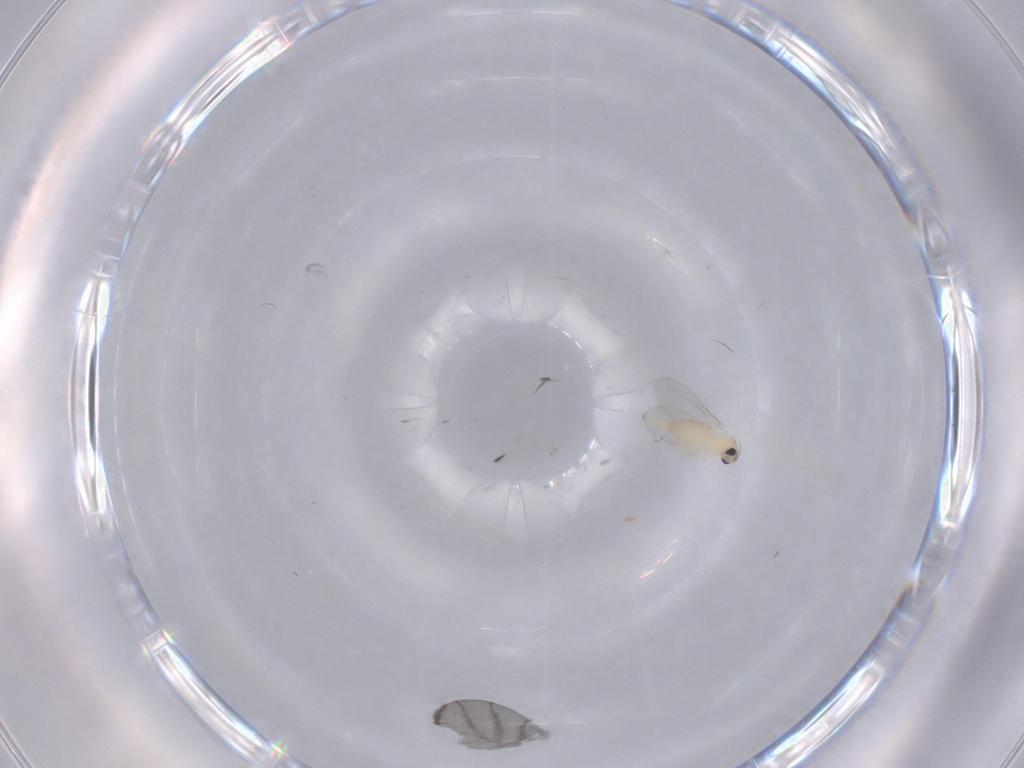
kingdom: Animalia
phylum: Arthropoda
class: Insecta
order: Diptera
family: Cecidomyiidae
